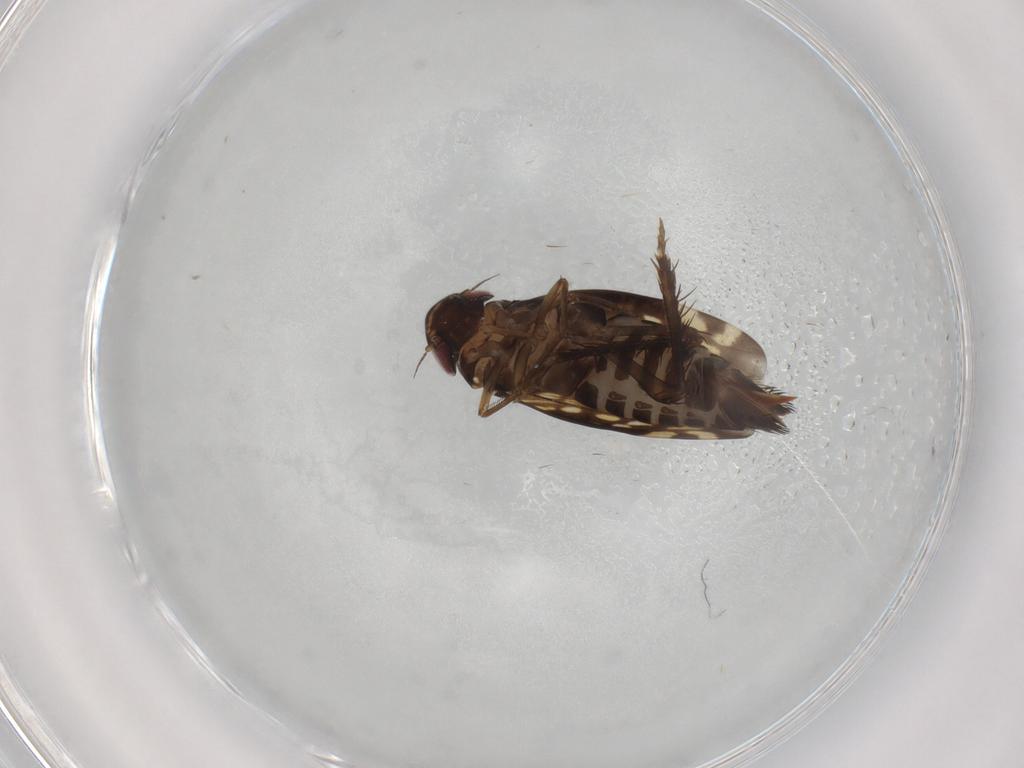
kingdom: Animalia
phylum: Arthropoda
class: Insecta
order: Hemiptera
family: Cicadellidae
